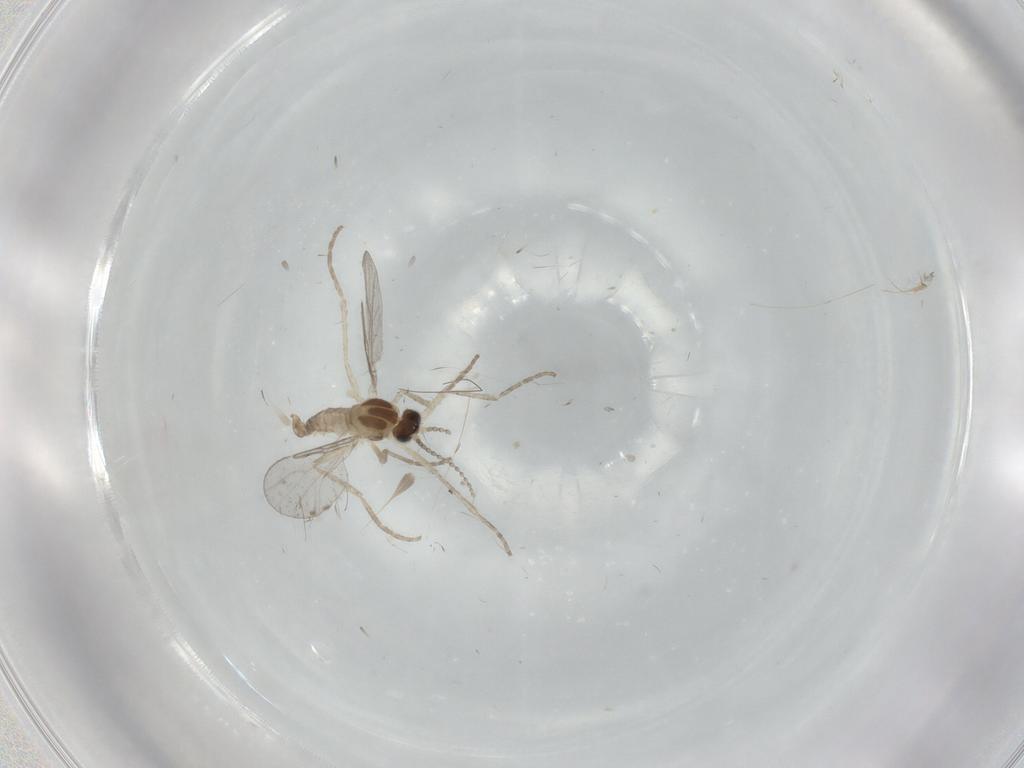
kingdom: Animalia
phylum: Arthropoda
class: Insecta
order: Diptera
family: Cecidomyiidae
